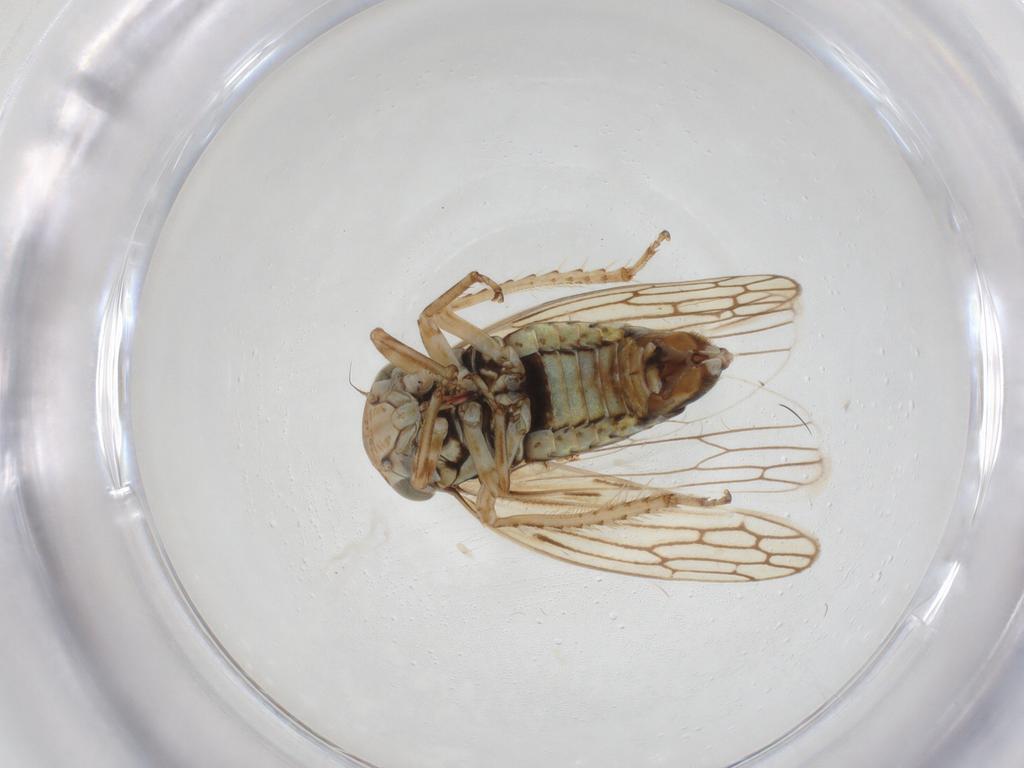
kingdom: Animalia
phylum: Arthropoda
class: Insecta
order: Hemiptera
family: Cicadellidae
